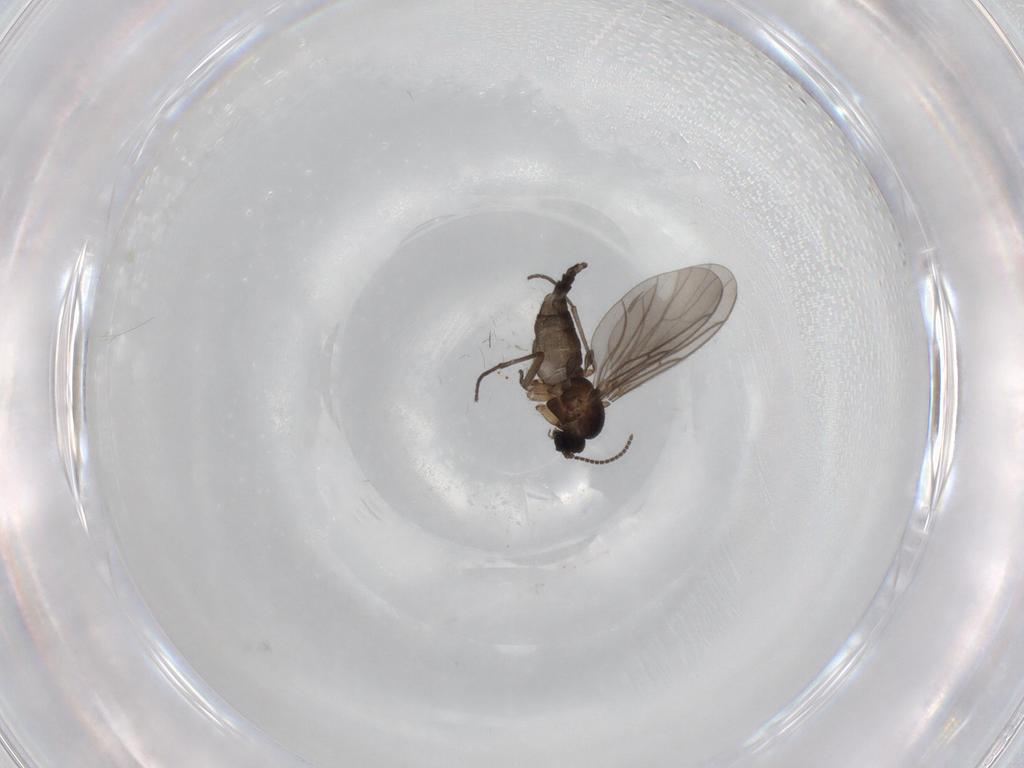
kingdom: Animalia
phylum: Arthropoda
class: Insecta
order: Diptera
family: Sciaridae
